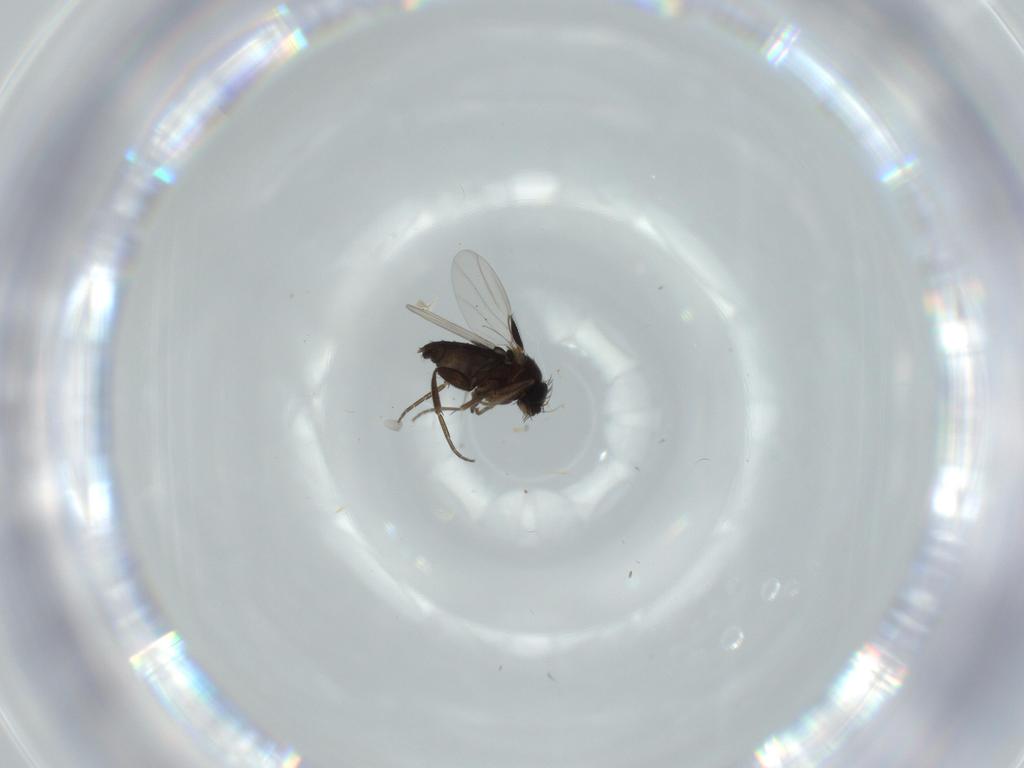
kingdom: Animalia
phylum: Arthropoda
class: Insecta
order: Diptera
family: Phoridae
